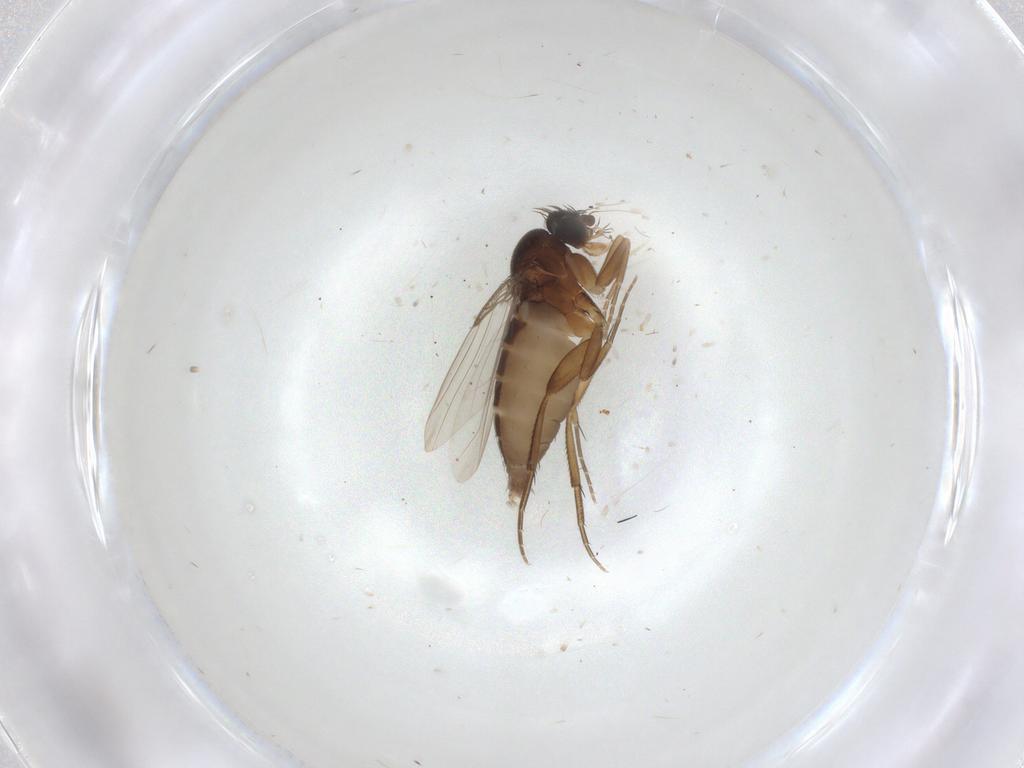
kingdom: Animalia
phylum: Arthropoda
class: Insecta
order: Diptera
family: Phoridae
